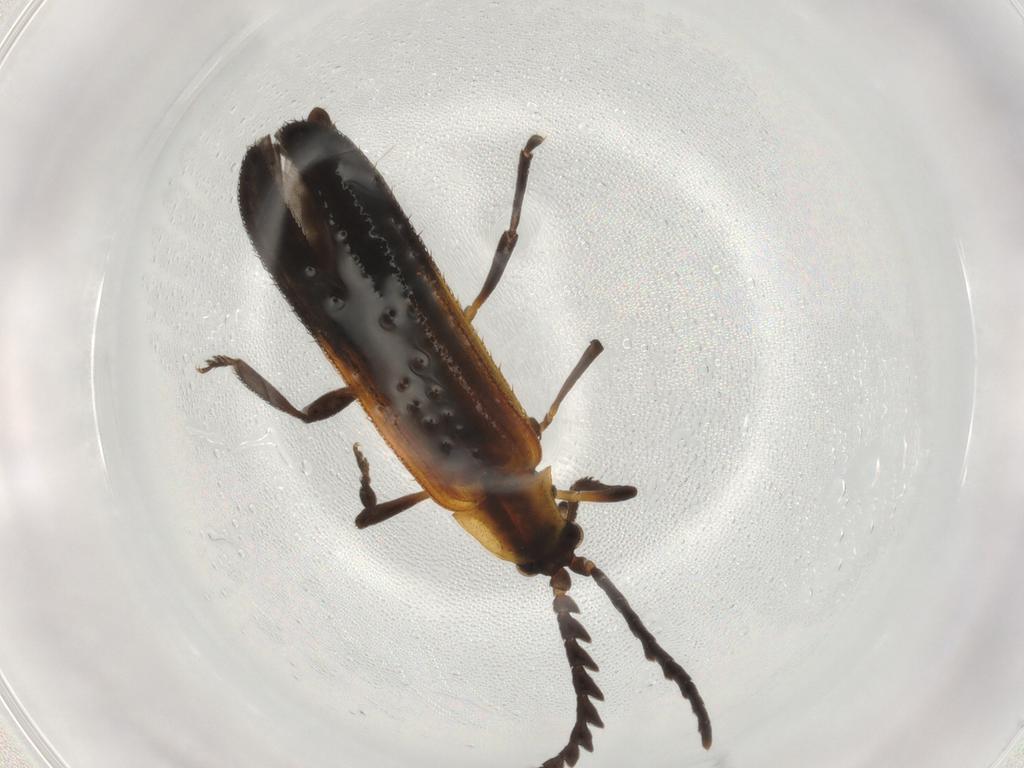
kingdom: Animalia
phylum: Arthropoda
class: Insecta
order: Coleoptera
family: Lycidae
